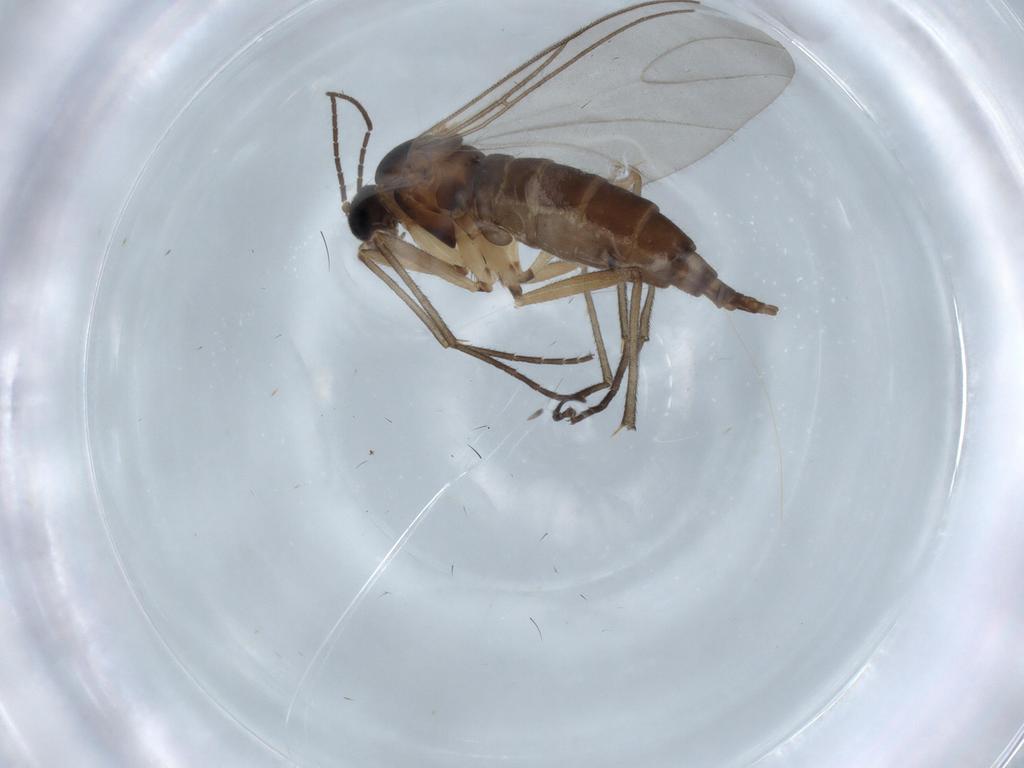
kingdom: Animalia
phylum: Arthropoda
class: Insecta
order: Diptera
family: Sciaridae
